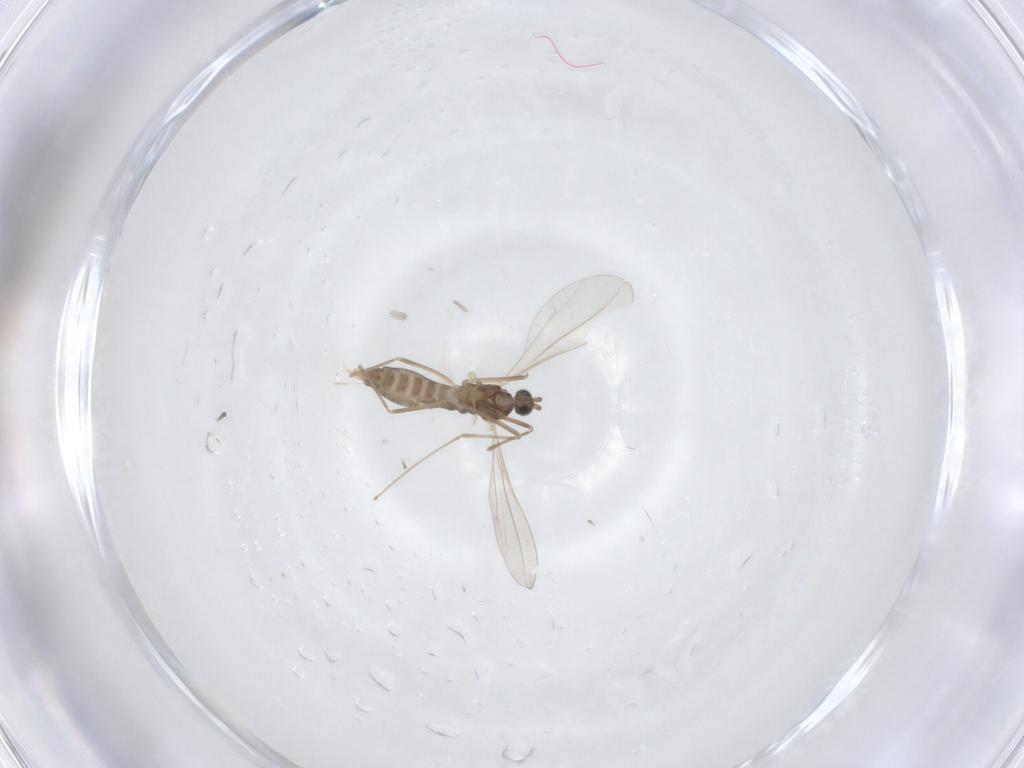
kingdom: Animalia
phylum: Arthropoda
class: Insecta
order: Diptera
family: Cecidomyiidae
